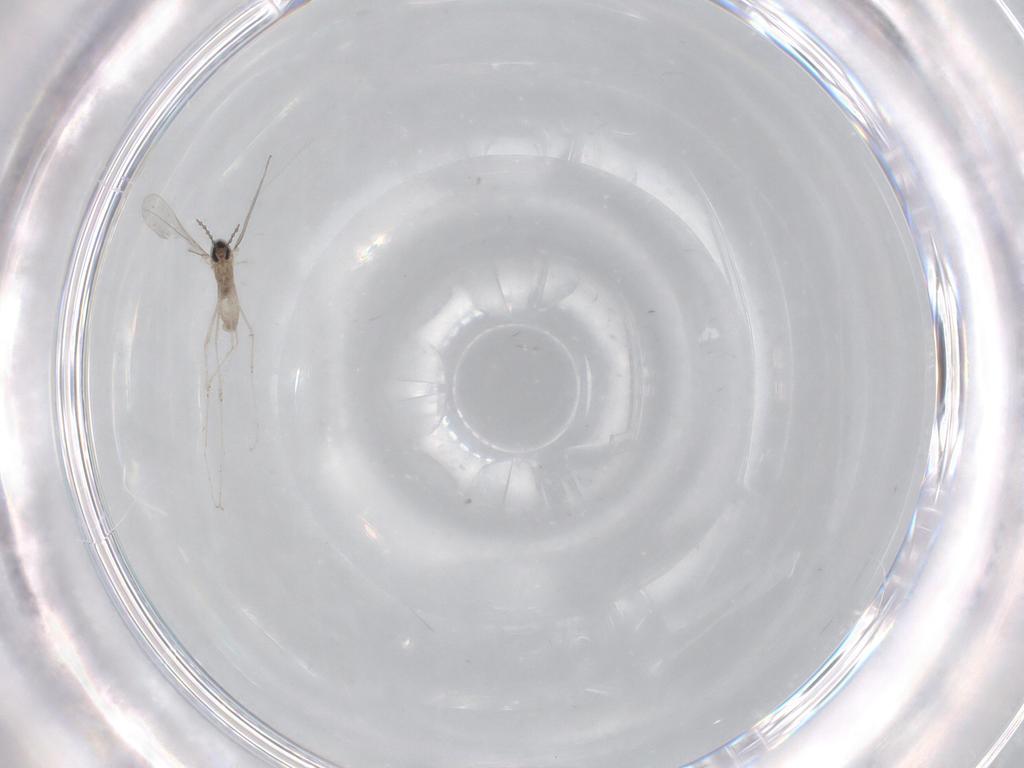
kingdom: Animalia
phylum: Arthropoda
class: Insecta
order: Diptera
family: Cecidomyiidae
